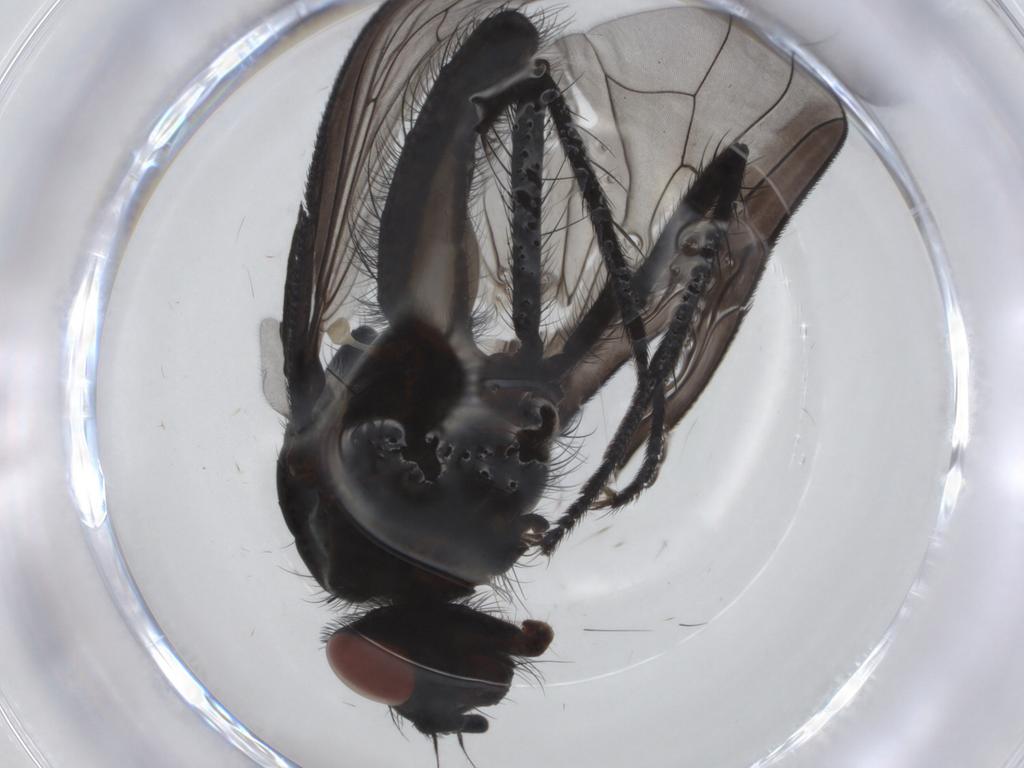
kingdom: Animalia
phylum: Arthropoda
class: Insecta
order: Diptera
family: Anthomyiidae
